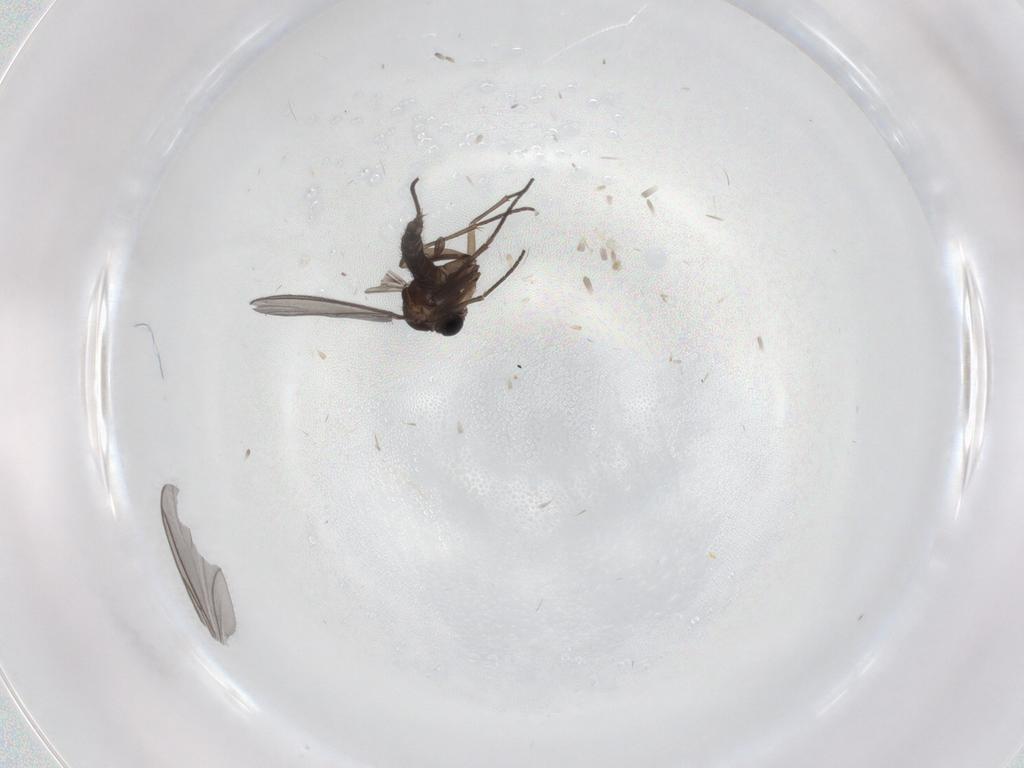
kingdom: Animalia
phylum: Arthropoda
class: Insecta
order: Diptera
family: Sciaridae
